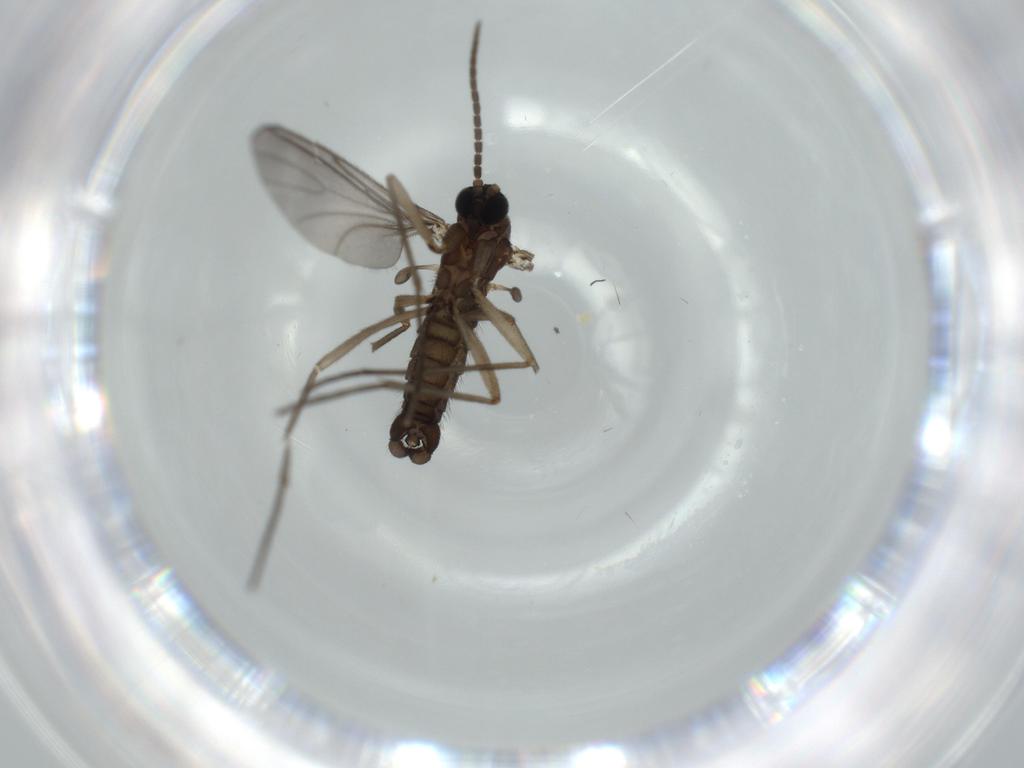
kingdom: Animalia
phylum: Arthropoda
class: Insecta
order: Diptera
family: Sciaridae
